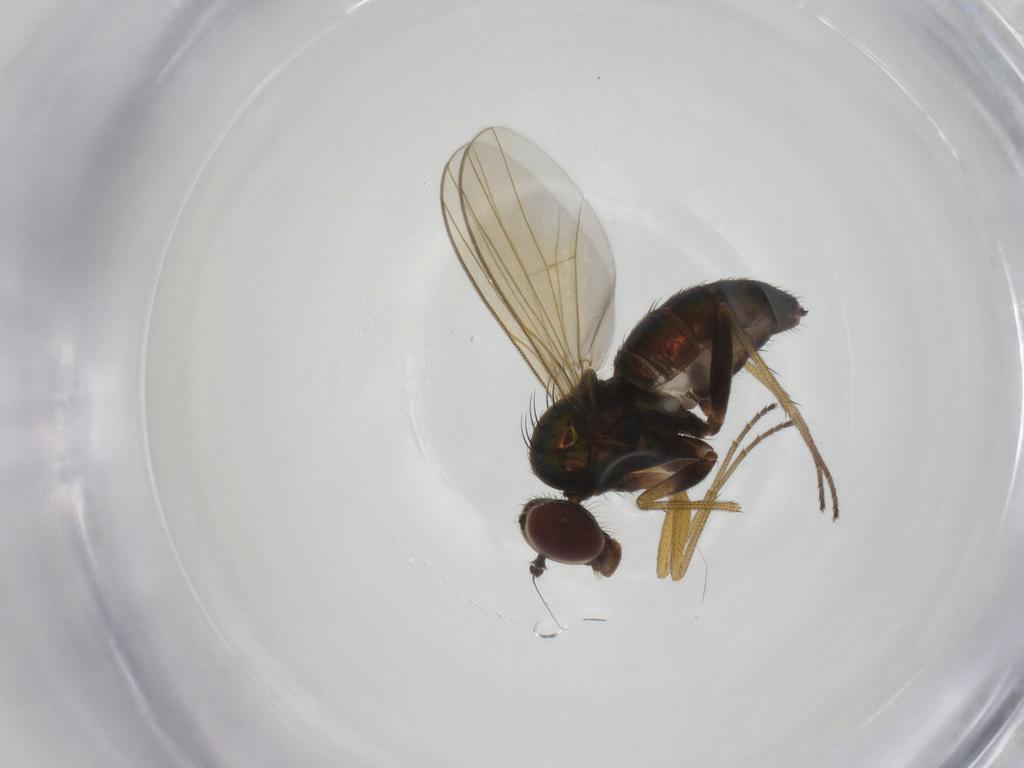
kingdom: Animalia
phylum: Arthropoda
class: Insecta
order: Diptera
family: Dolichopodidae
